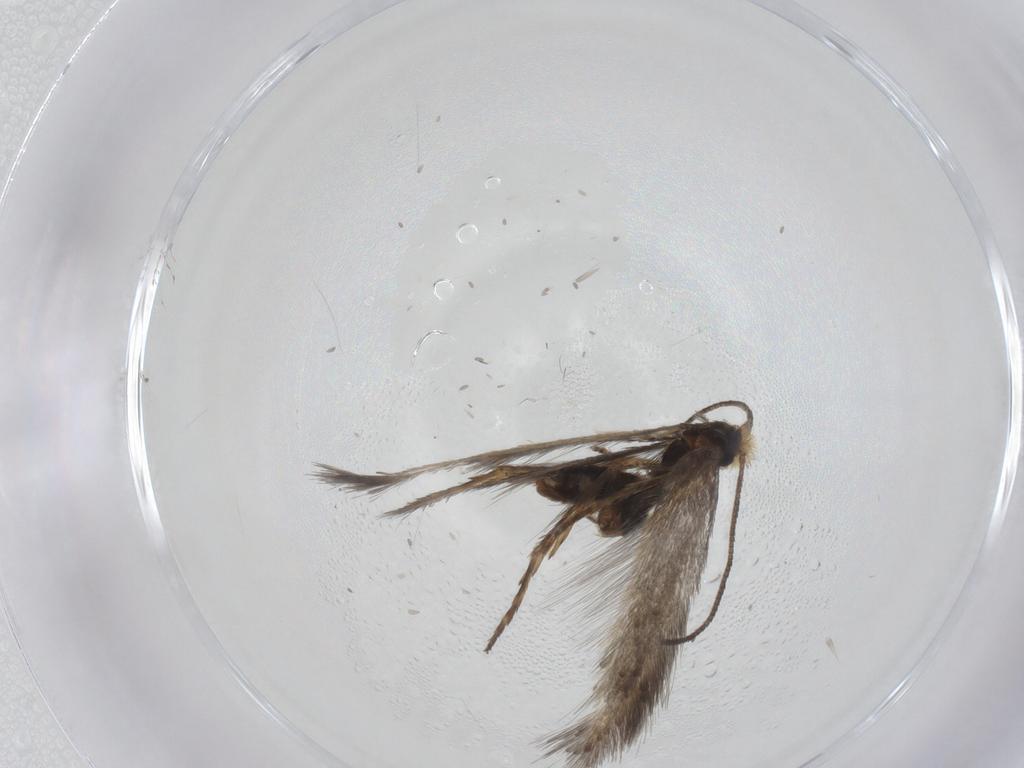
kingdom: Animalia
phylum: Arthropoda
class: Insecta
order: Lepidoptera
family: Nepticulidae
